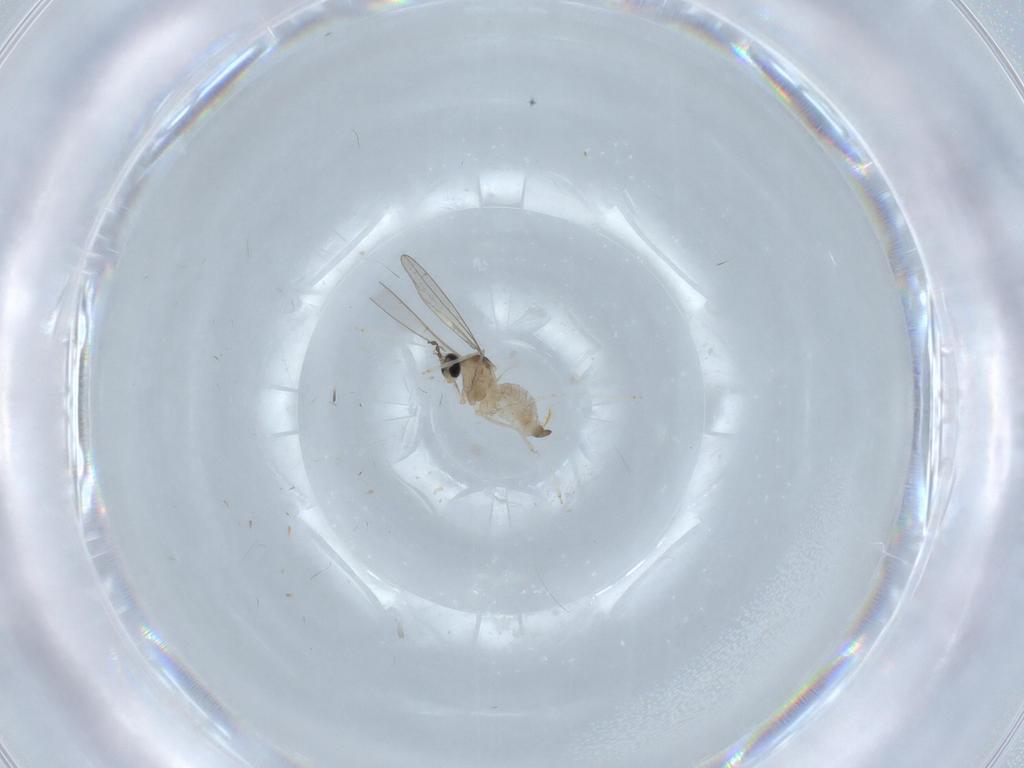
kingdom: Animalia
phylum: Arthropoda
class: Insecta
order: Diptera
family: Cecidomyiidae
